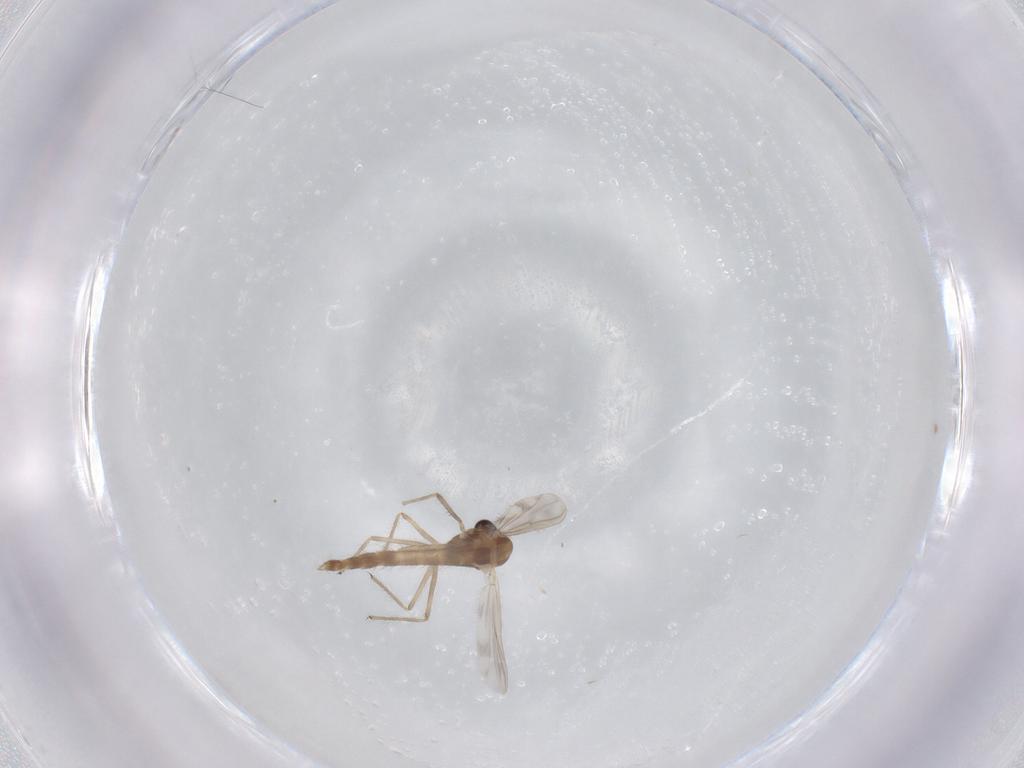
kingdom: Animalia
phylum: Arthropoda
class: Insecta
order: Diptera
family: Chironomidae
